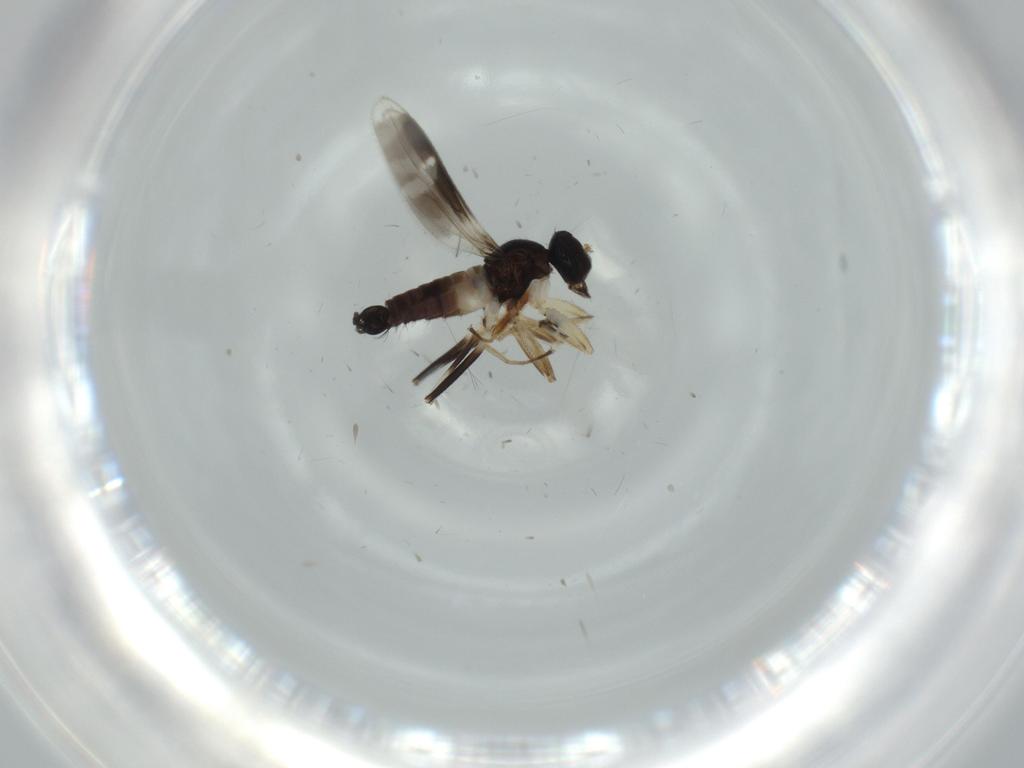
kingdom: Animalia
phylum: Arthropoda
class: Insecta
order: Diptera
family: Hybotidae
